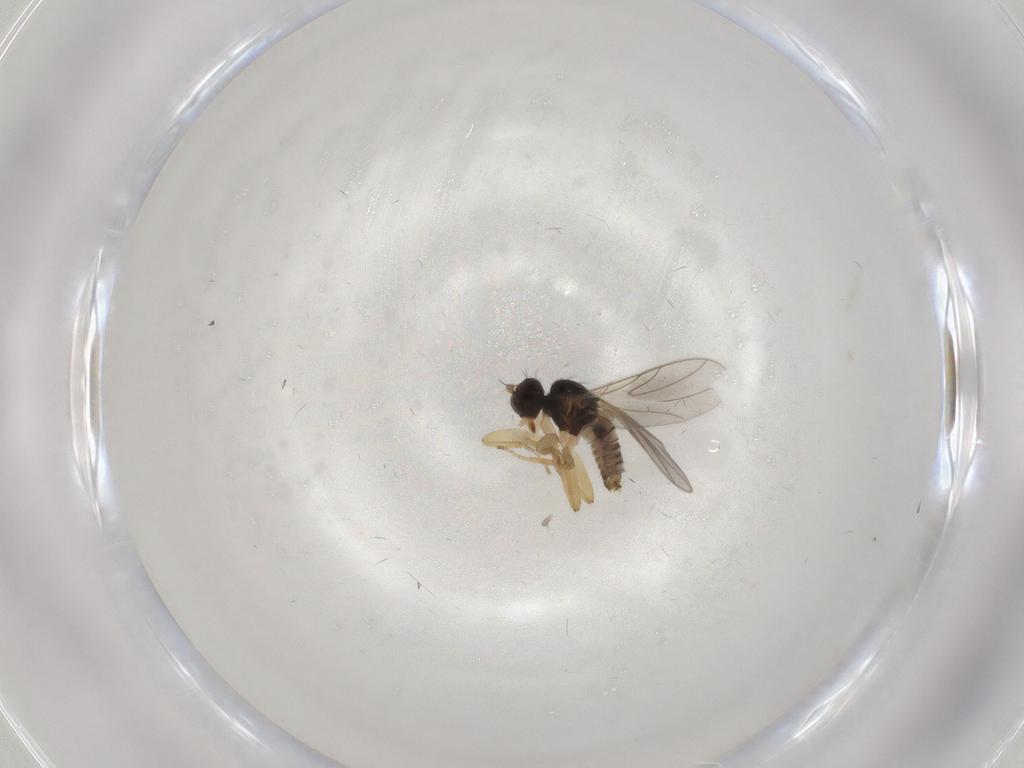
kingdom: Animalia
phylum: Arthropoda
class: Insecta
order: Diptera
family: Hybotidae
